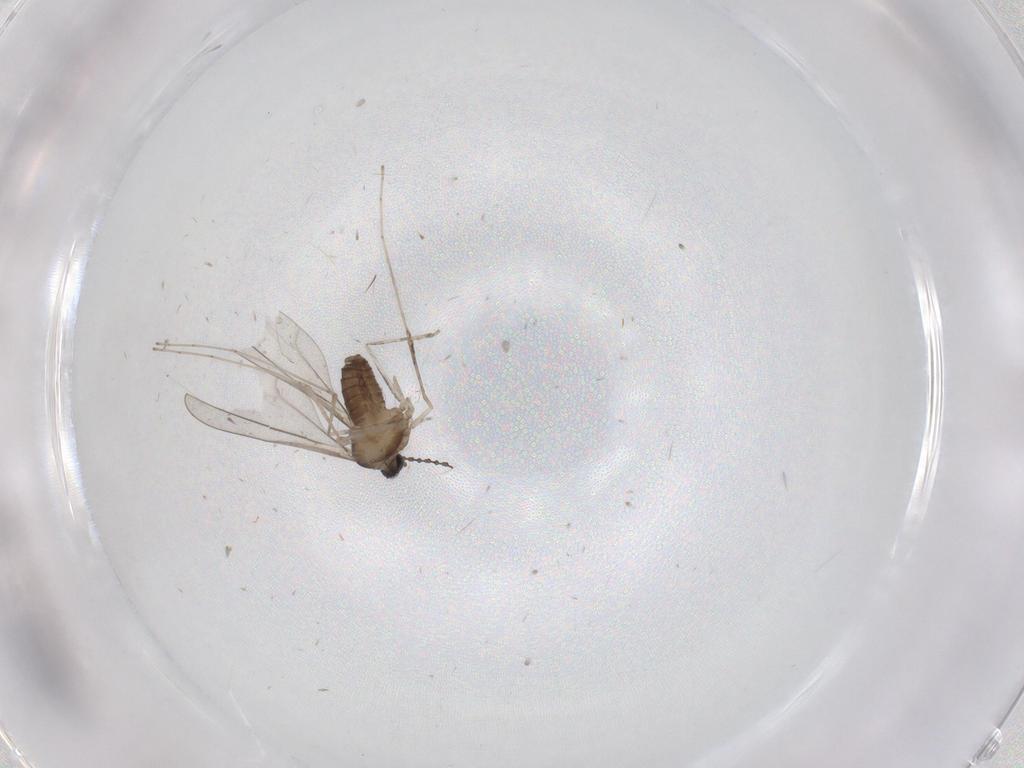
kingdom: Animalia
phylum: Arthropoda
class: Insecta
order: Diptera
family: Cecidomyiidae
